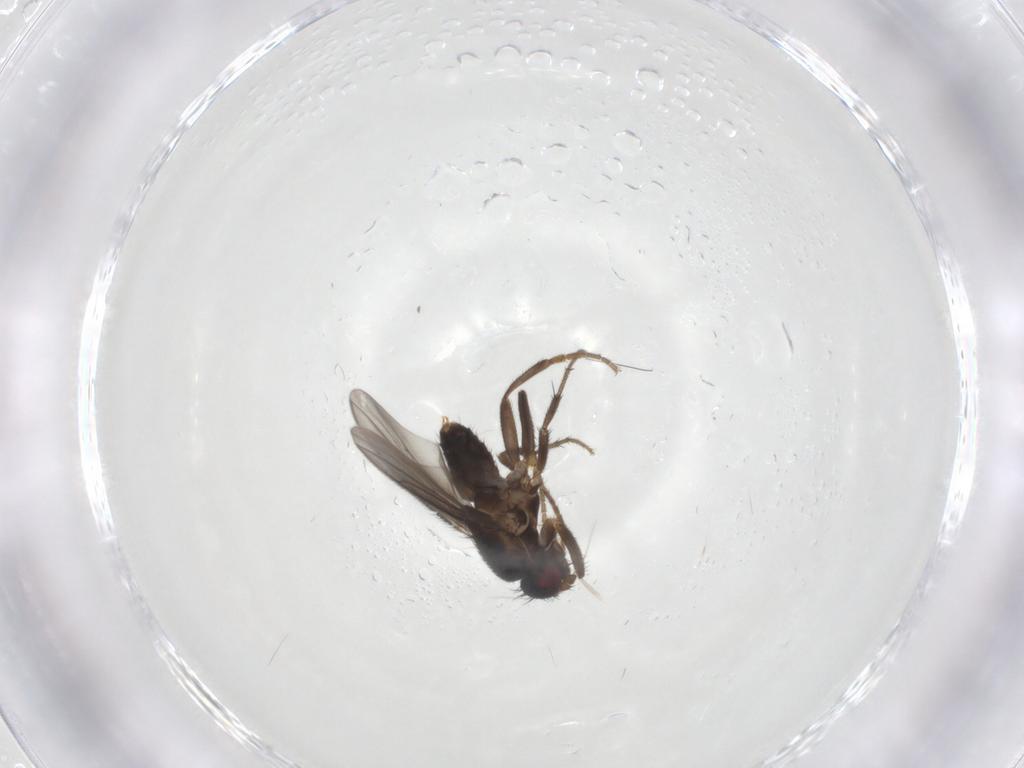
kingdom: Animalia
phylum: Arthropoda
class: Insecta
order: Diptera
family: Sphaeroceridae
